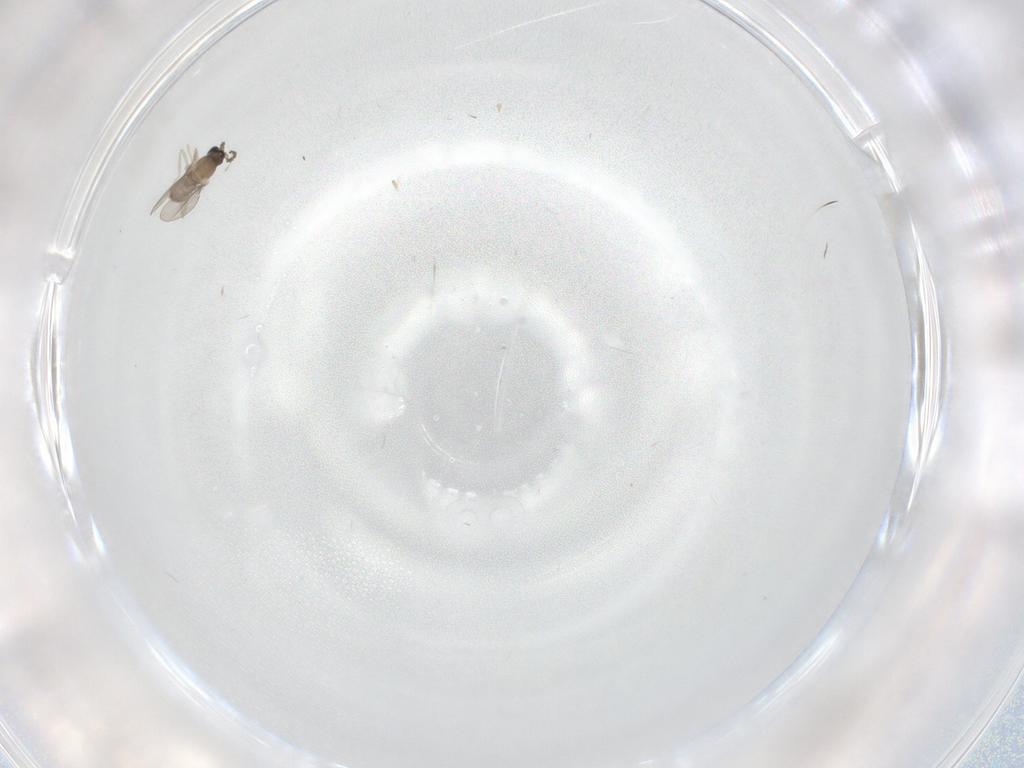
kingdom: Animalia
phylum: Arthropoda
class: Insecta
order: Diptera
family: Cecidomyiidae
